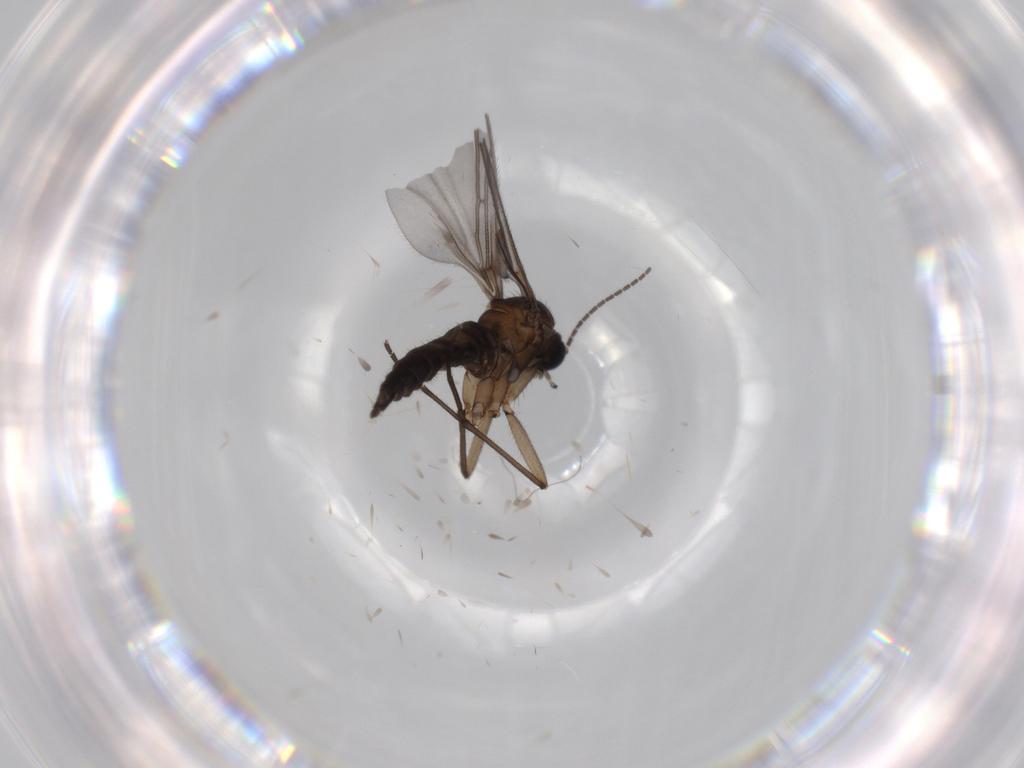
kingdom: Animalia
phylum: Arthropoda
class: Insecta
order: Diptera
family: Sciaridae
